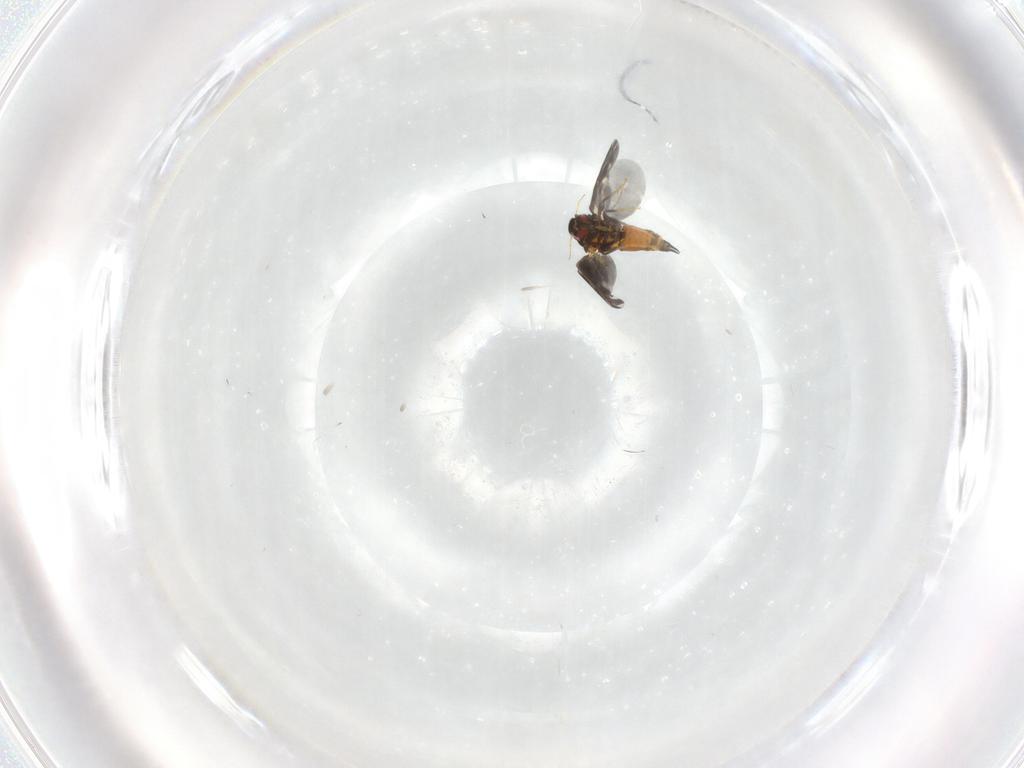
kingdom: Animalia
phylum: Arthropoda
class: Insecta
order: Hemiptera
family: Aleyrodidae
